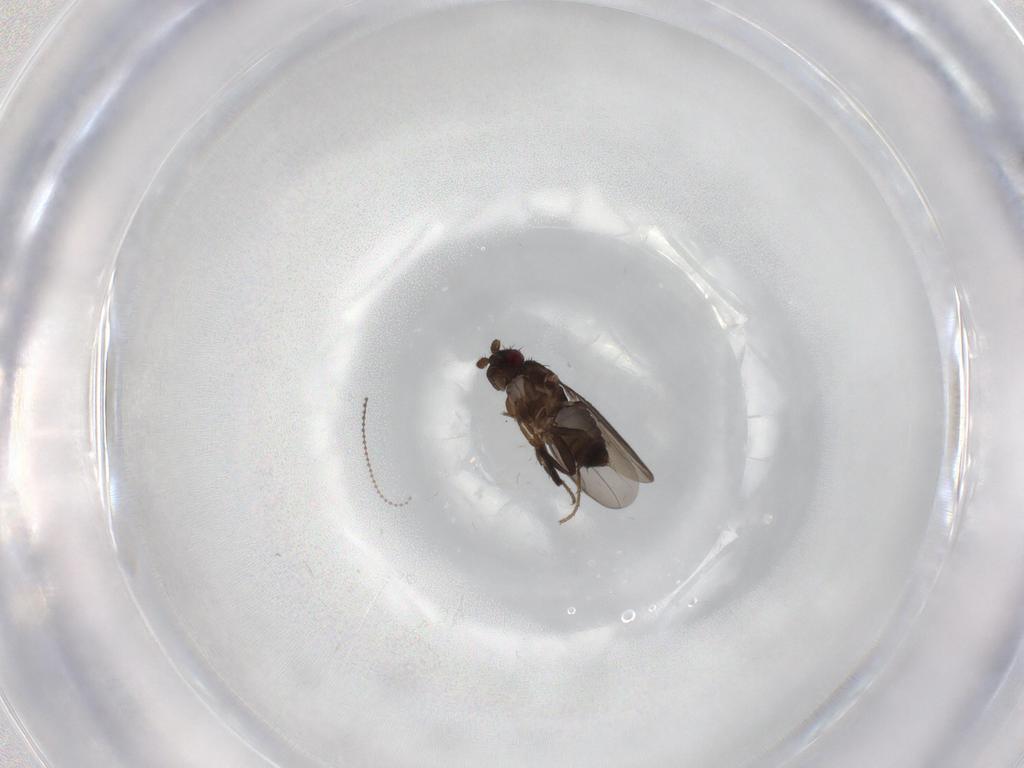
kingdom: Animalia
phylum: Arthropoda
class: Insecta
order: Diptera
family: Sphaeroceridae
